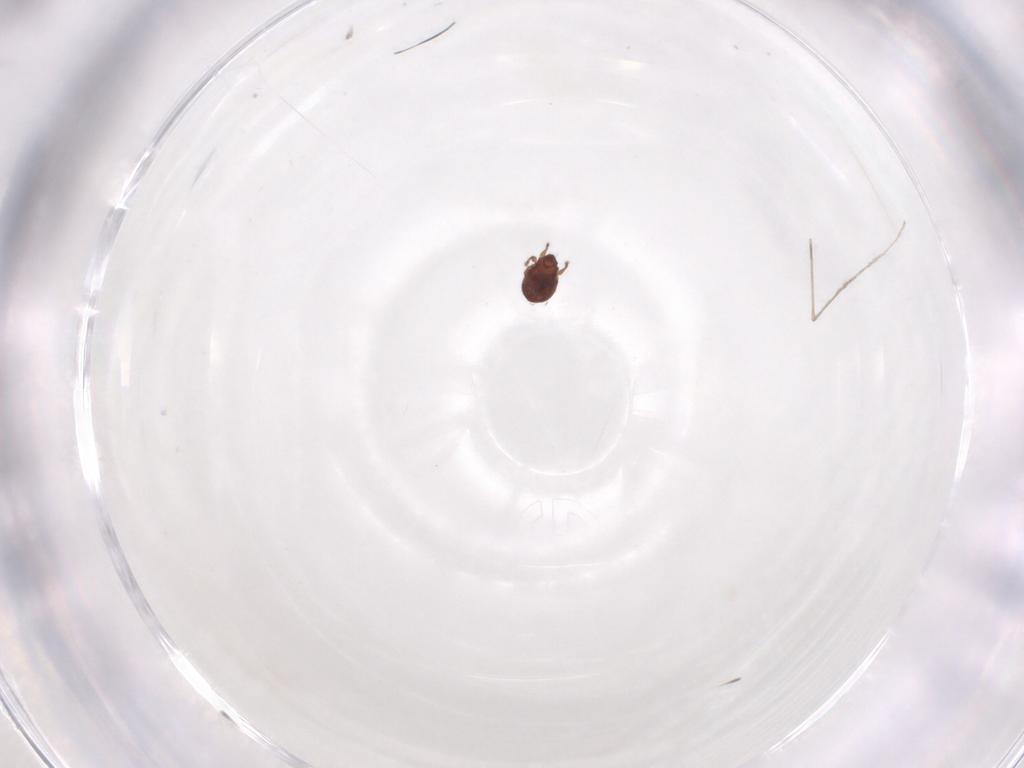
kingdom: Animalia
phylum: Arthropoda
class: Arachnida
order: Sarcoptiformes
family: Scheloribatidae
